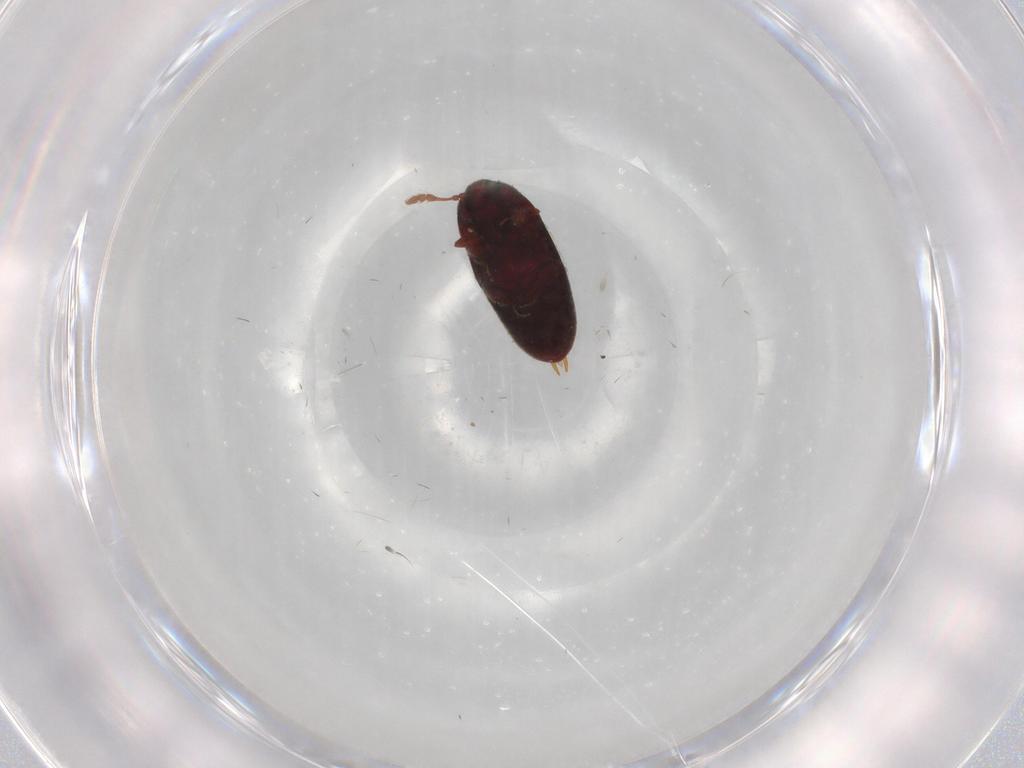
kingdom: Animalia
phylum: Arthropoda
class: Insecta
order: Coleoptera
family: Throscidae
